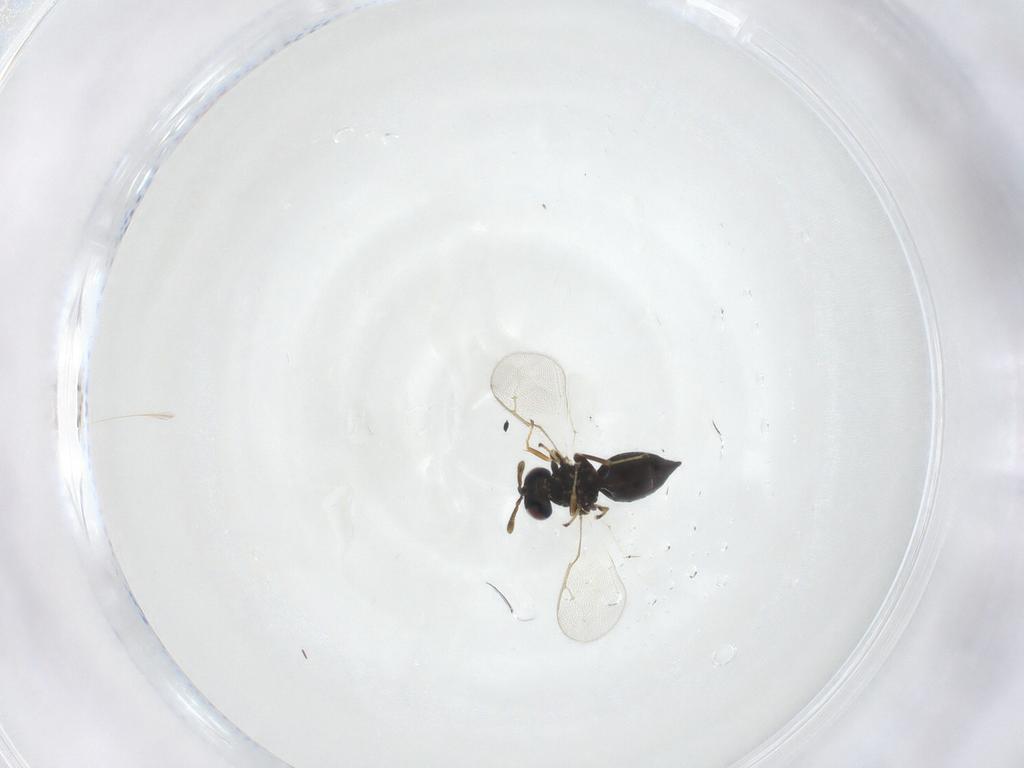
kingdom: Animalia
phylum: Arthropoda
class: Insecta
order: Hymenoptera
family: Pteromalidae
